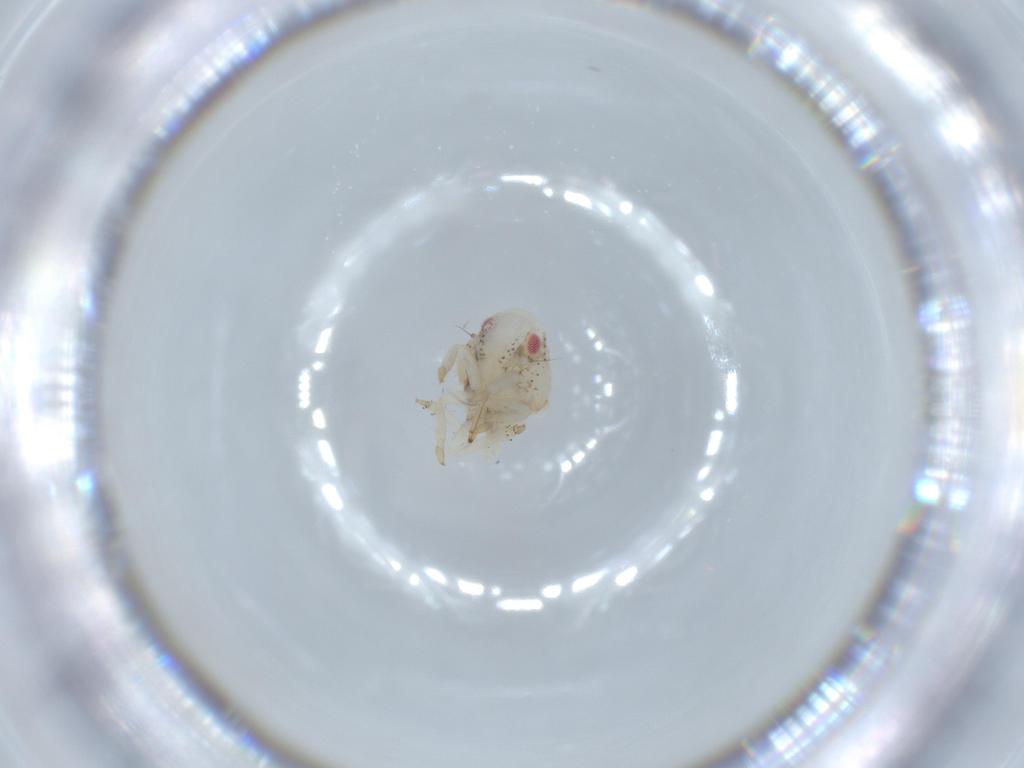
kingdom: Animalia
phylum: Arthropoda
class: Insecta
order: Hemiptera
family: Acanaloniidae
